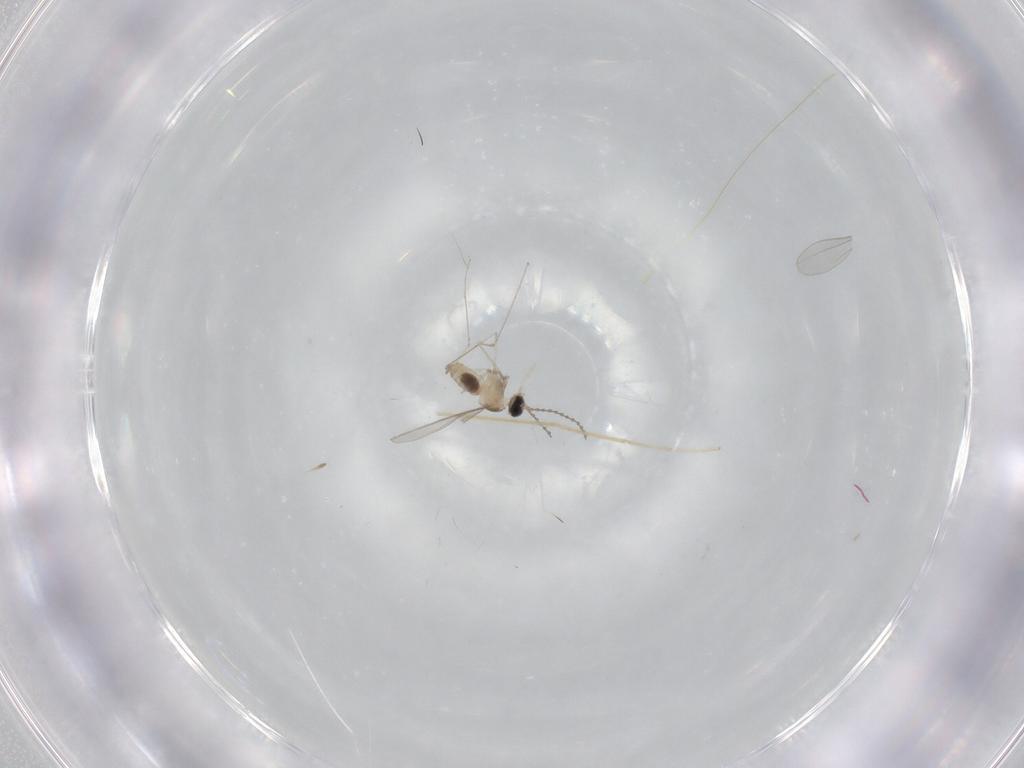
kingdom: Animalia
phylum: Arthropoda
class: Insecta
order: Diptera
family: Cecidomyiidae
